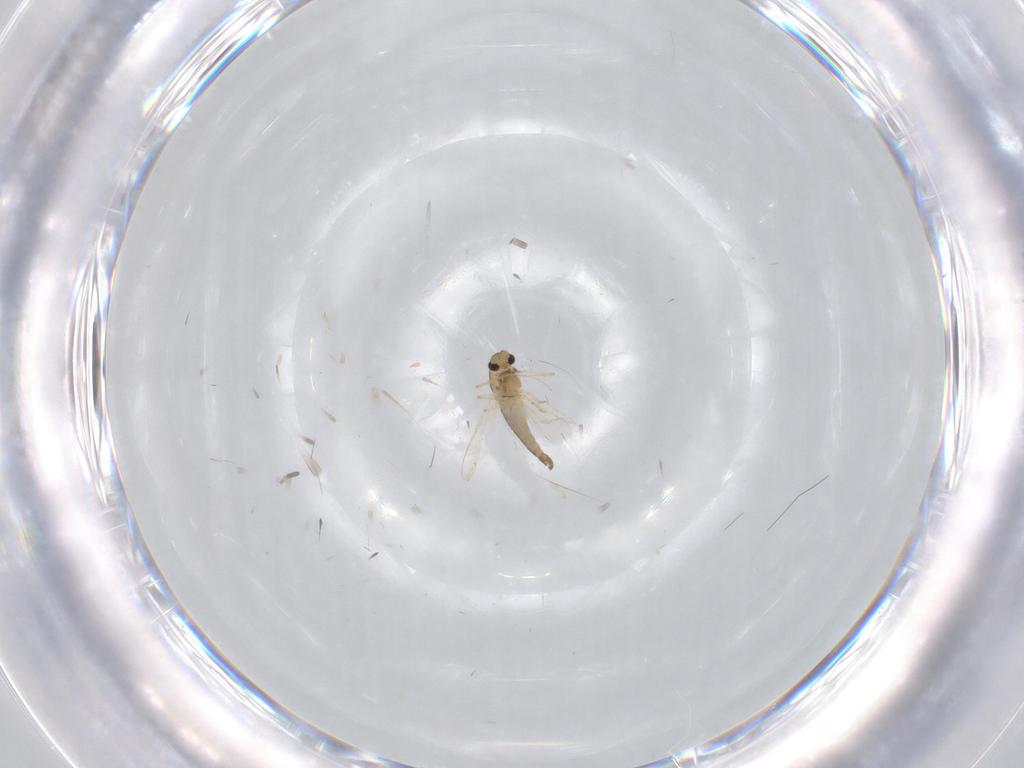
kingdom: Animalia
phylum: Arthropoda
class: Insecta
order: Diptera
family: Chironomidae
